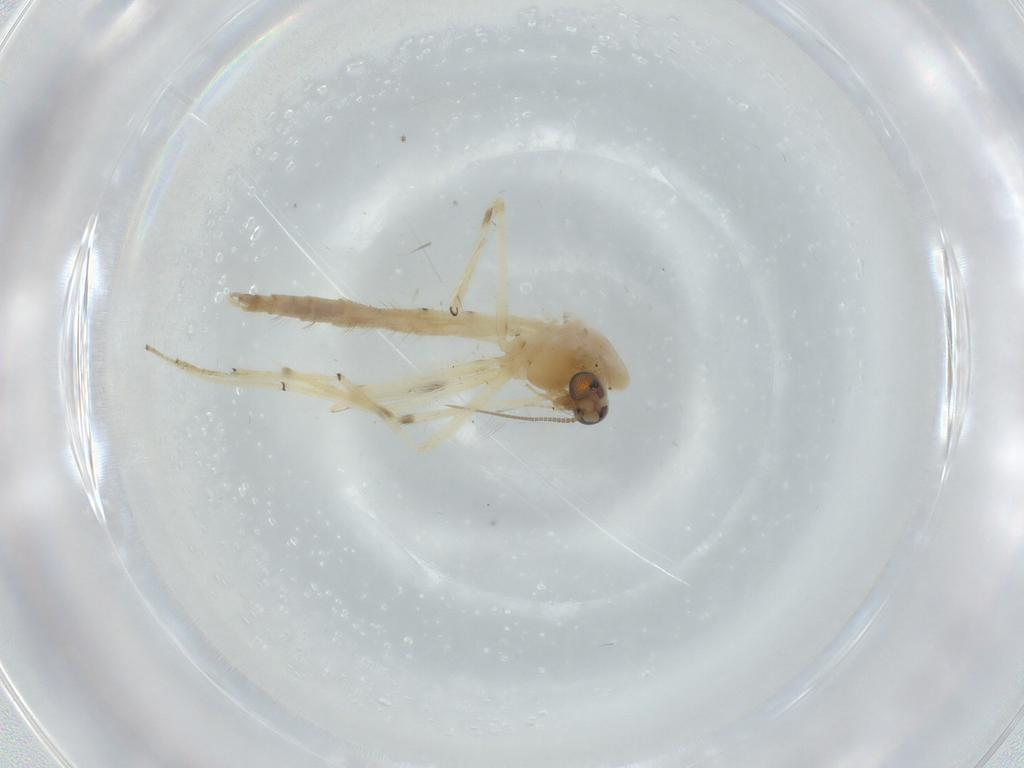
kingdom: Animalia
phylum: Arthropoda
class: Insecta
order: Diptera
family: Chironomidae
